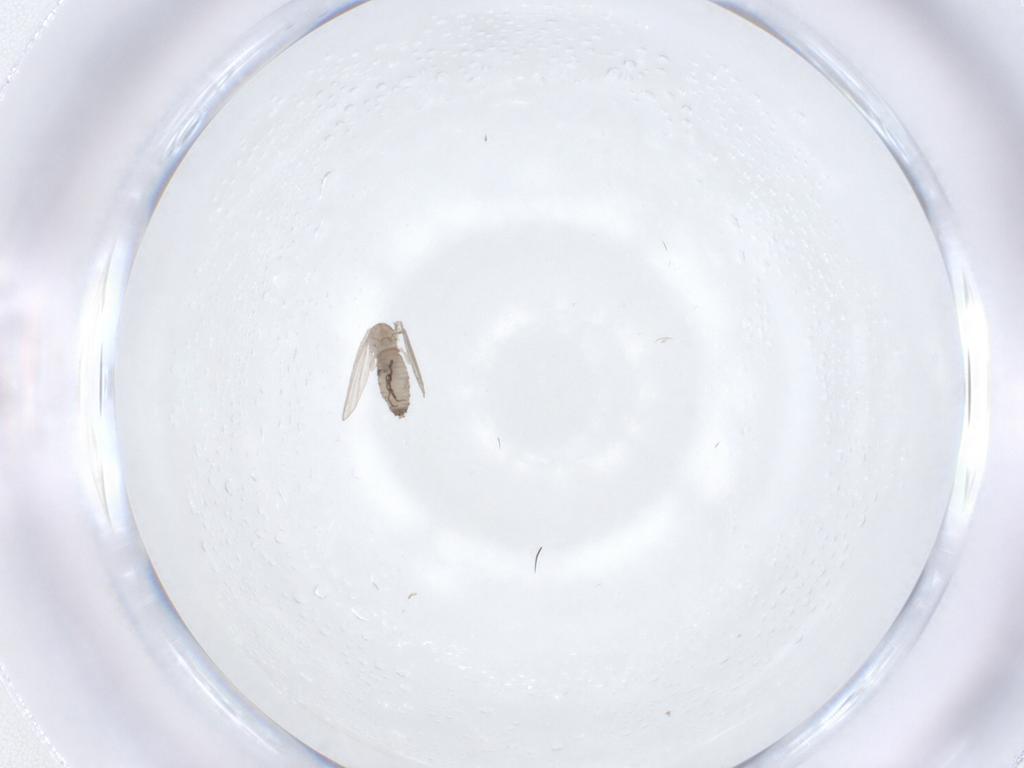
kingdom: Animalia
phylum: Arthropoda
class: Insecta
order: Diptera
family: Psychodidae
